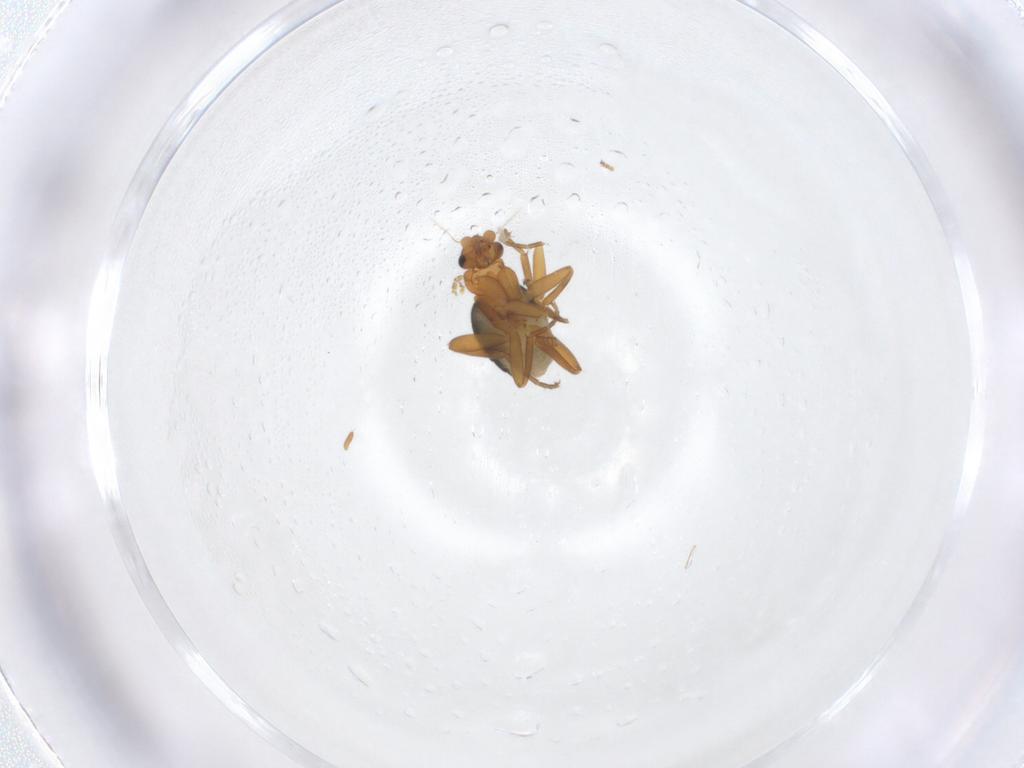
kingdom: Animalia
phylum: Arthropoda
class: Insecta
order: Diptera
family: Phoridae
